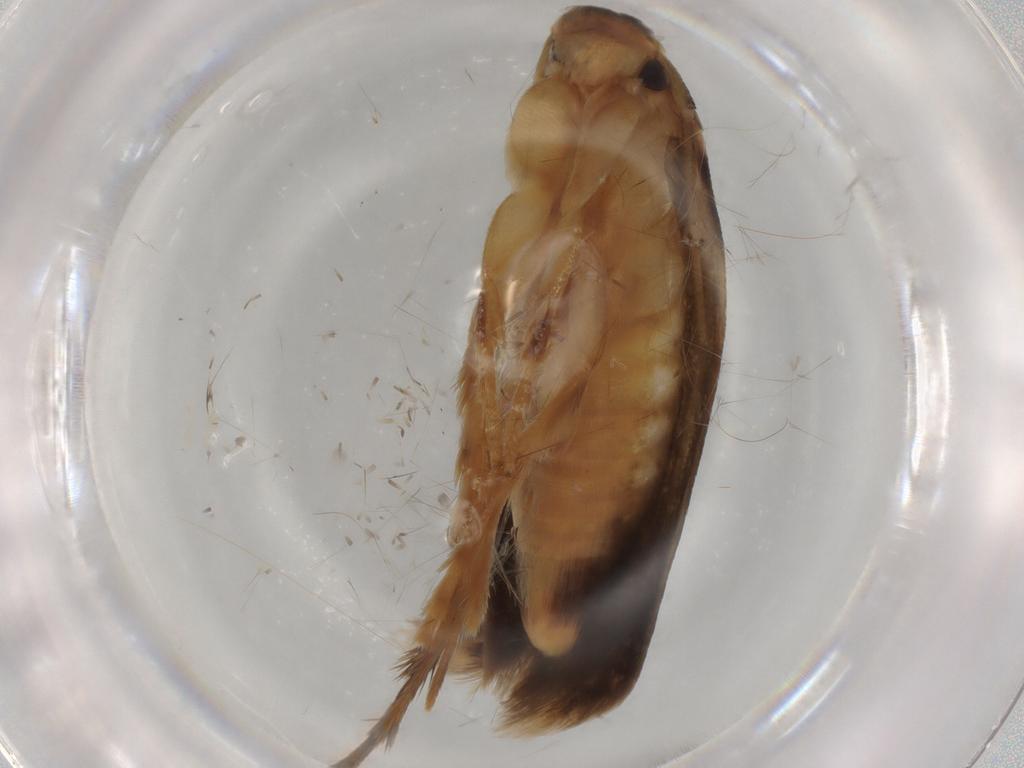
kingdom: Animalia
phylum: Arthropoda
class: Insecta
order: Lepidoptera
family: Tineidae
